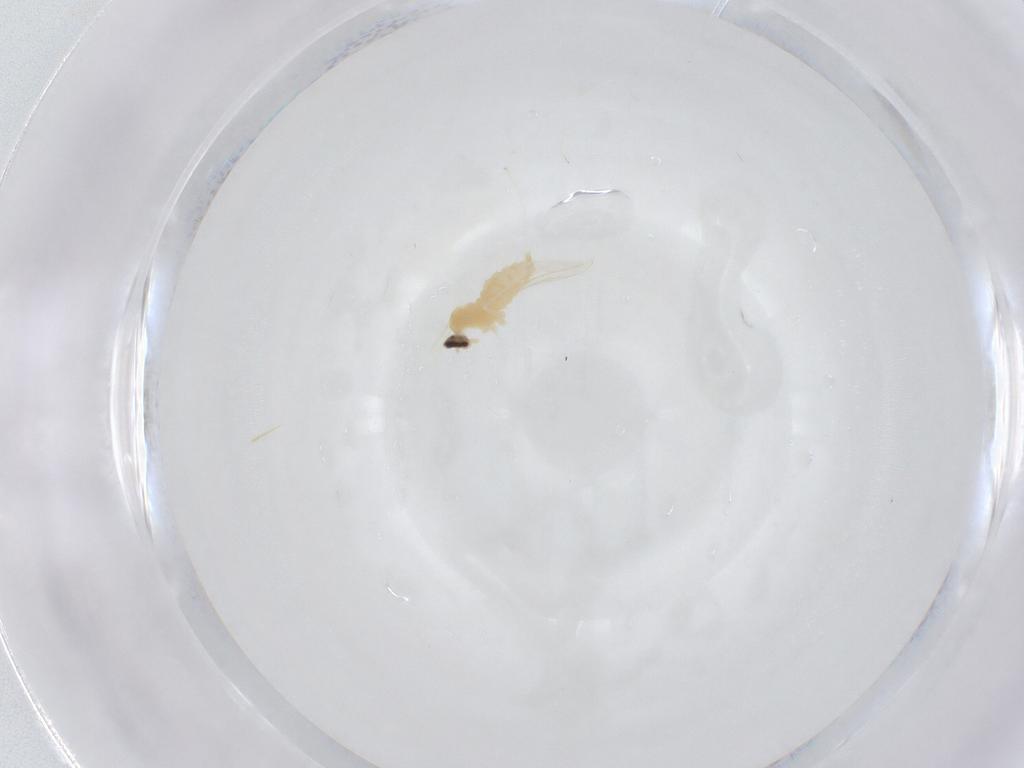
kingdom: Animalia
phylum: Arthropoda
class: Insecta
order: Diptera
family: Cecidomyiidae
